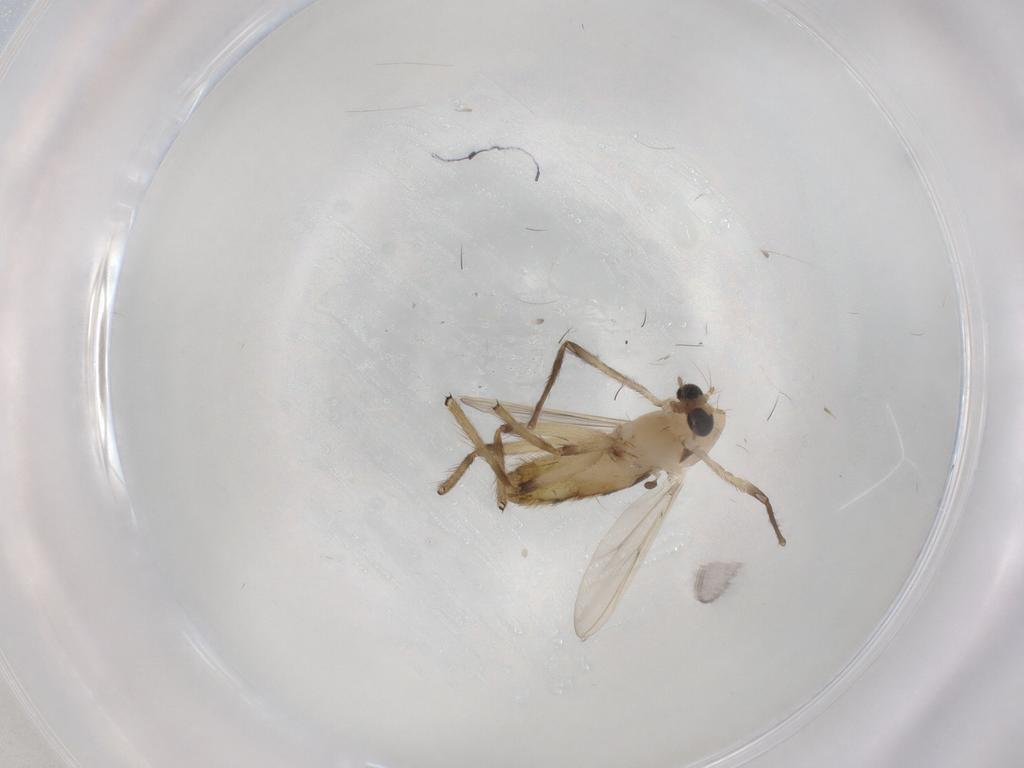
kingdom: Animalia
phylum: Arthropoda
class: Insecta
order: Diptera
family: Chironomidae
